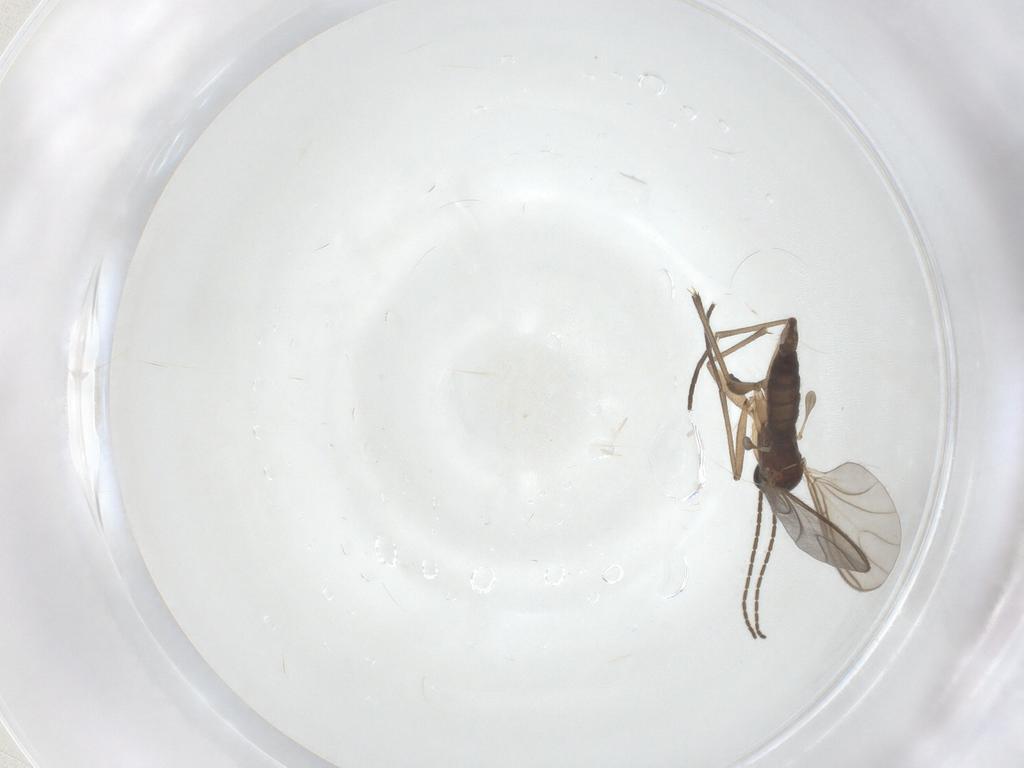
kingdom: Animalia
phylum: Arthropoda
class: Insecta
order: Diptera
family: Sciaridae
